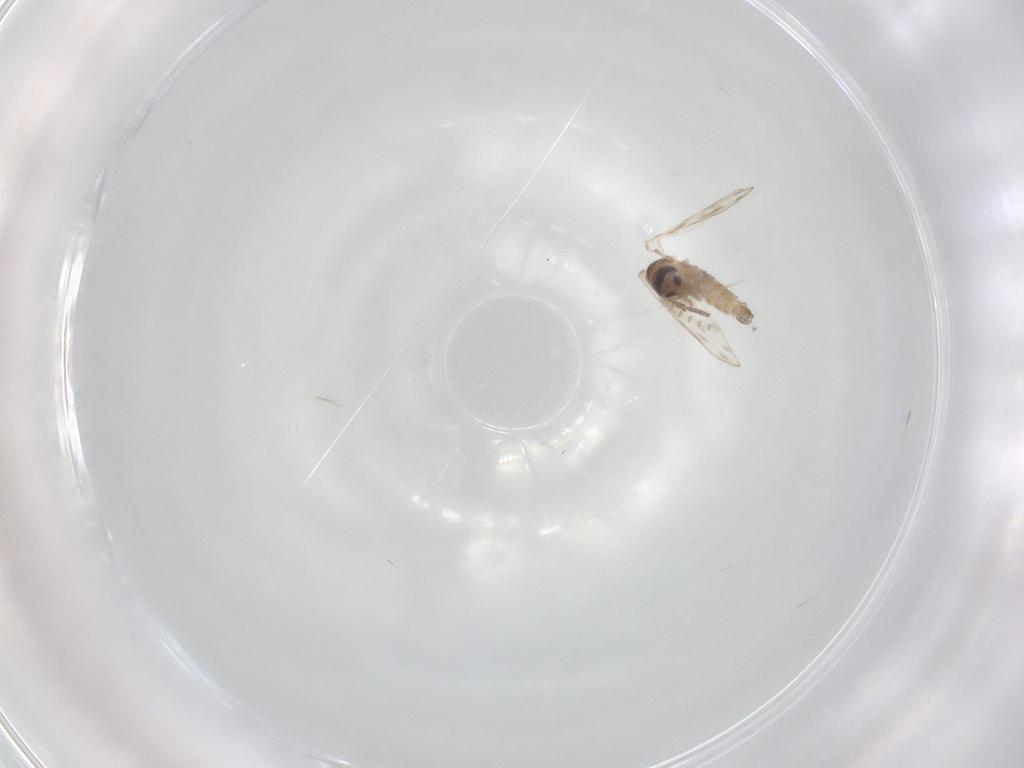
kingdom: Animalia
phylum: Arthropoda
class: Insecta
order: Diptera
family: Psychodidae
